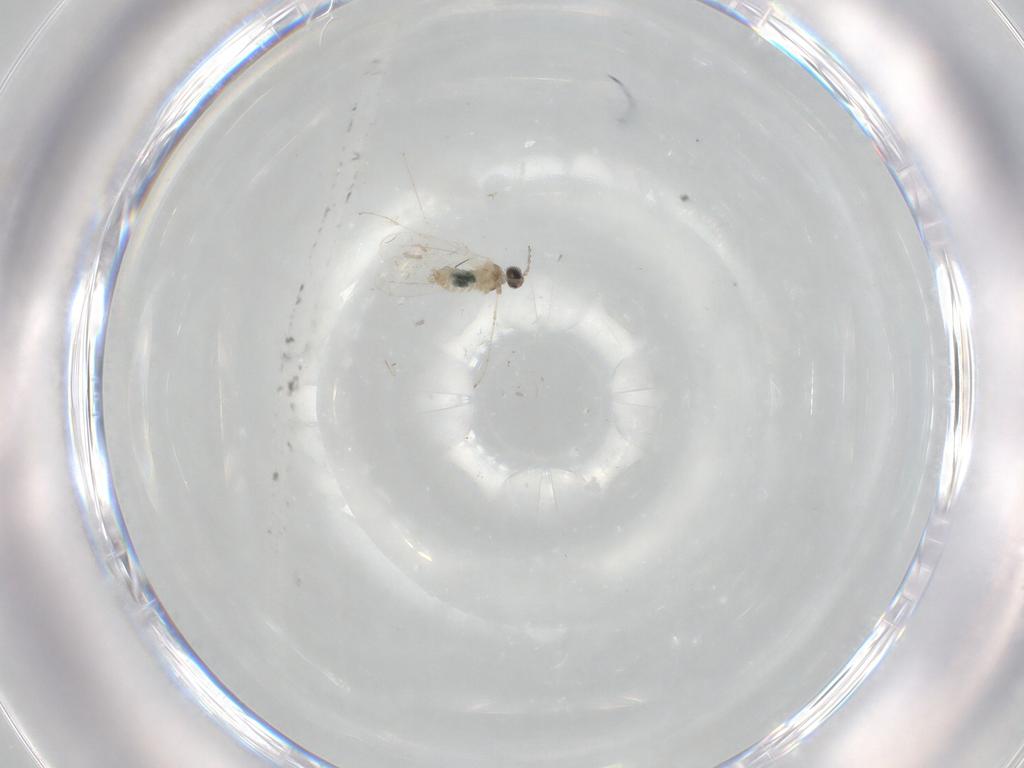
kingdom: Animalia
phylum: Arthropoda
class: Insecta
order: Diptera
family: Cecidomyiidae
